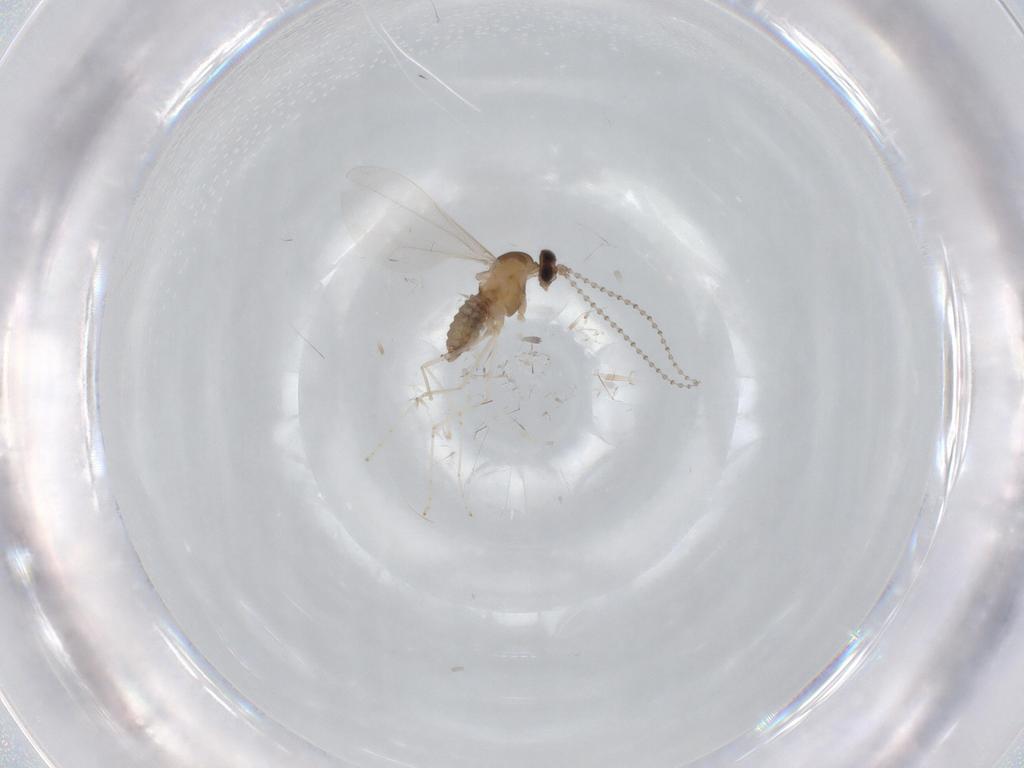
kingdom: Animalia
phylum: Arthropoda
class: Insecta
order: Diptera
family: Cecidomyiidae
